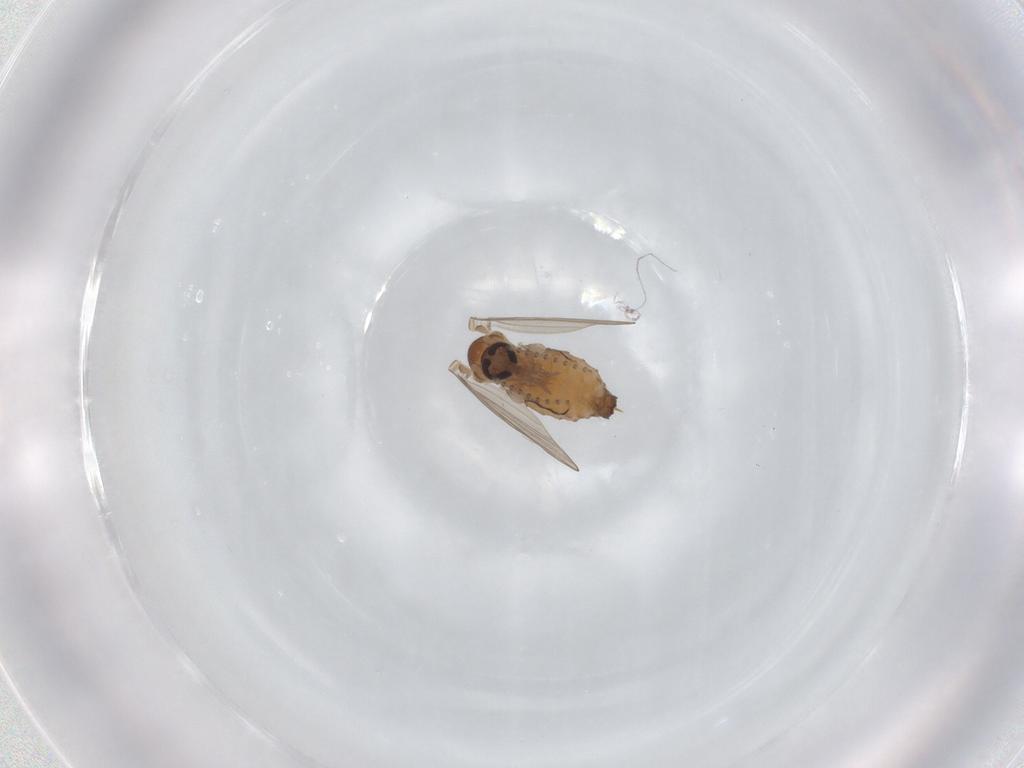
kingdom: Animalia
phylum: Arthropoda
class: Insecta
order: Diptera
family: Psychodidae
